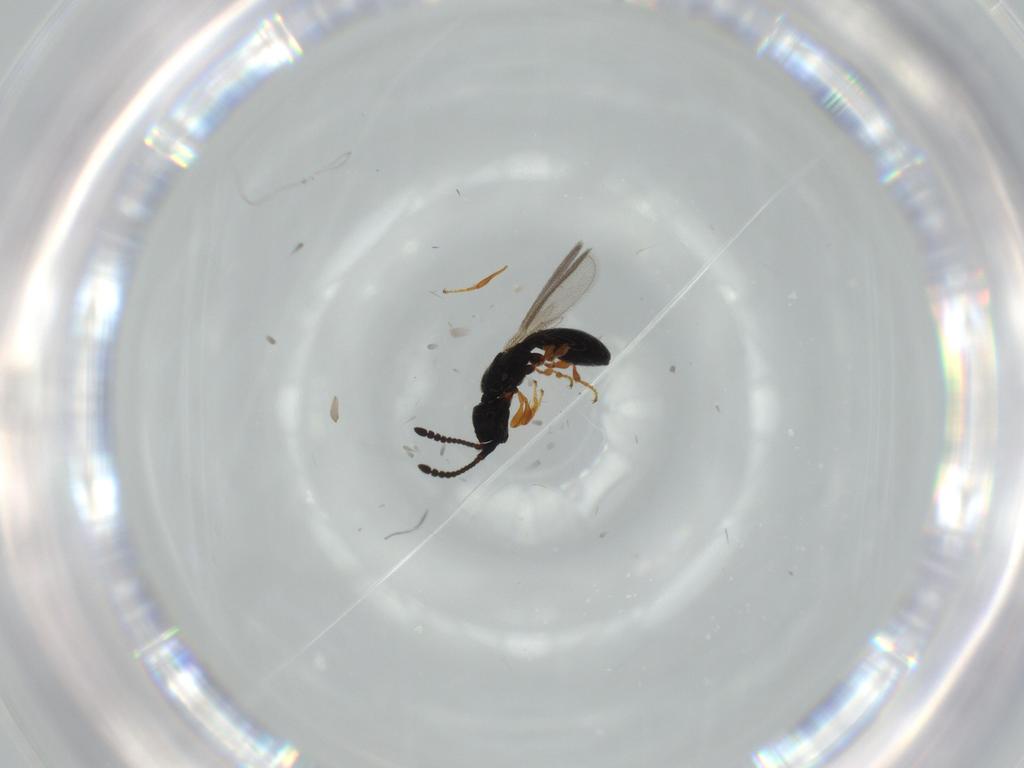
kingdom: Animalia
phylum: Arthropoda
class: Insecta
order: Hymenoptera
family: Diapriidae
